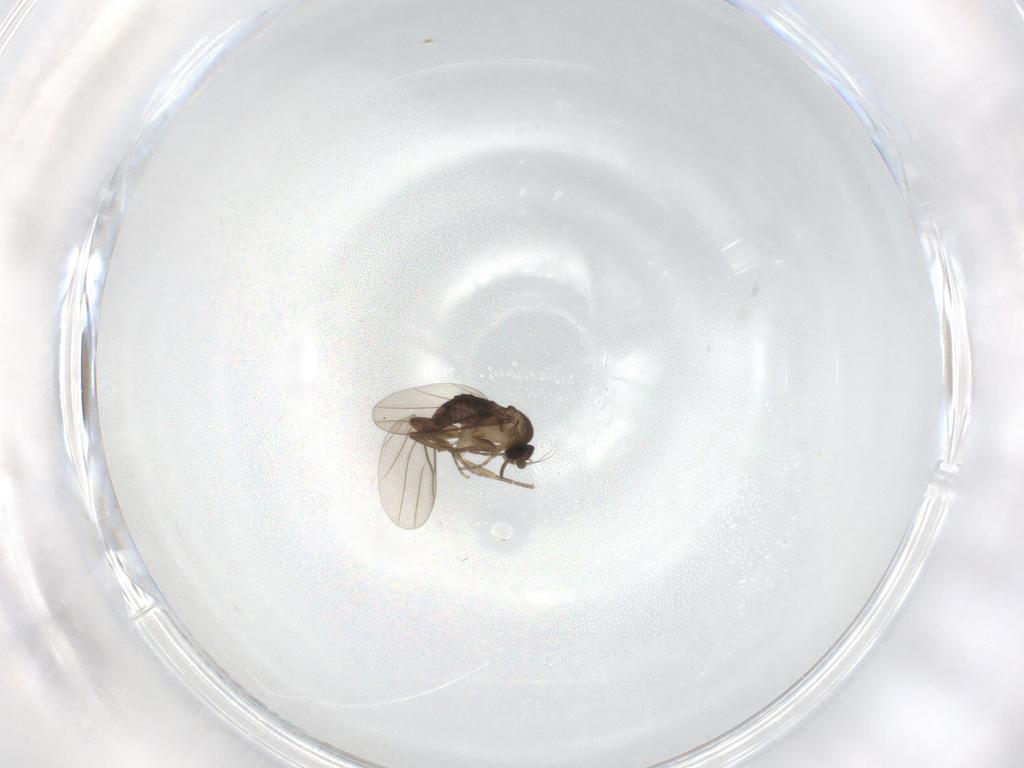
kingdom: Animalia
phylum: Arthropoda
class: Insecta
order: Diptera
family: Phoridae
